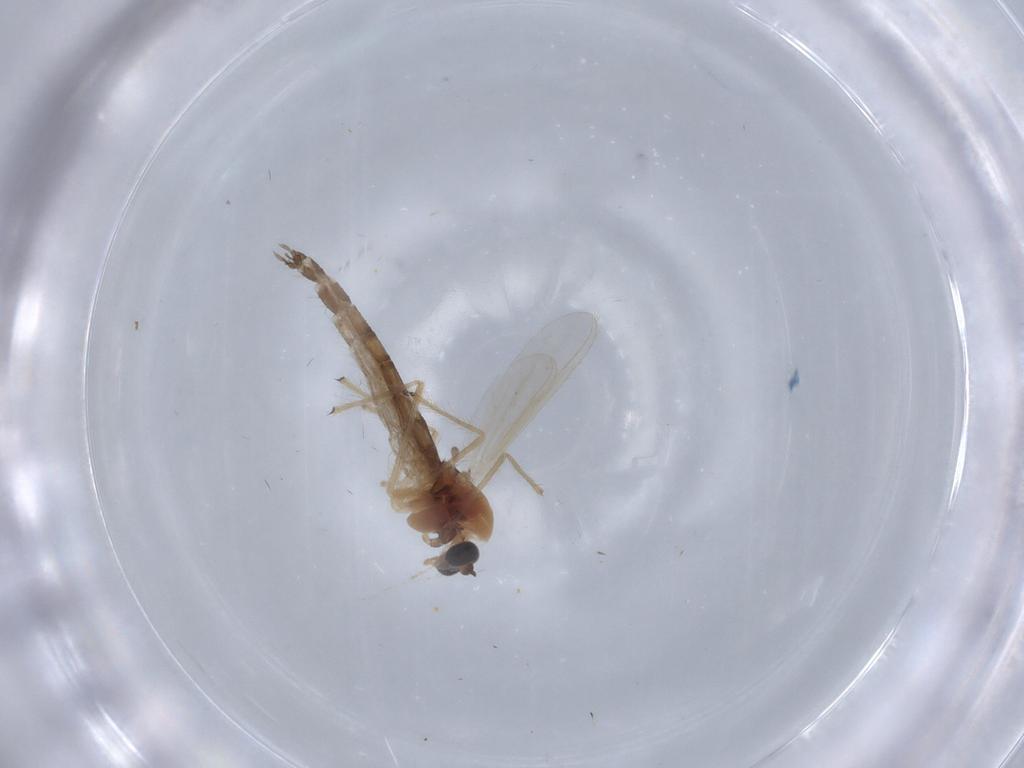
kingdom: Animalia
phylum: Arthropoda
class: Insecta
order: Diptera
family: Chironomidae
